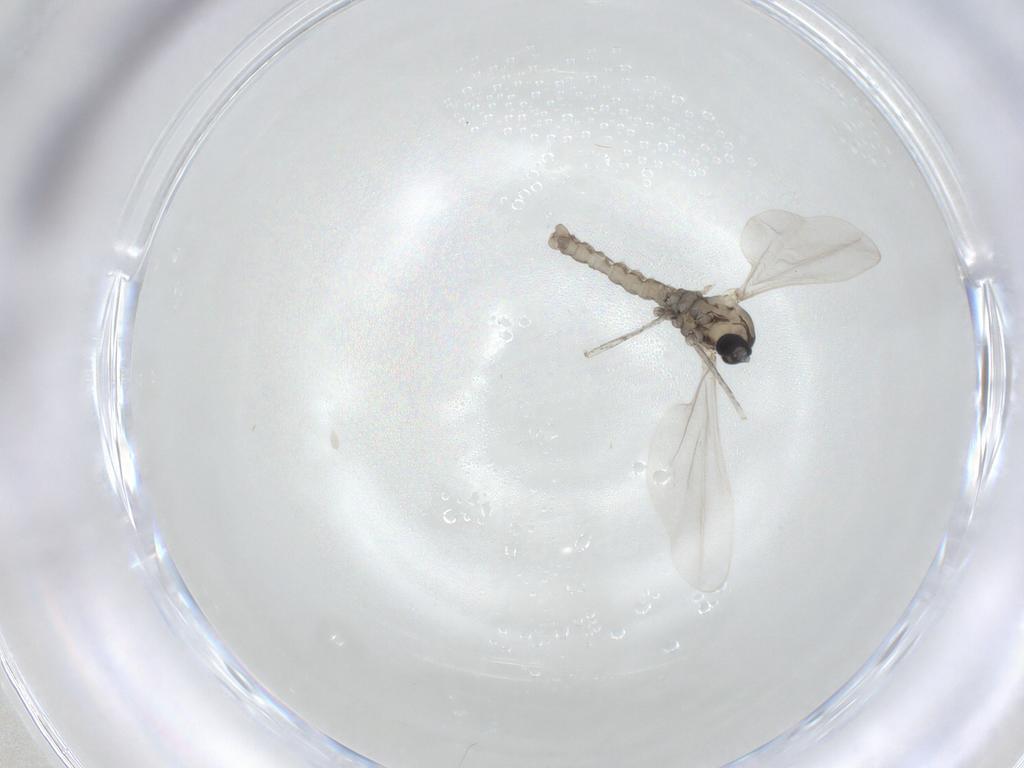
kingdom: Animalia
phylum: Arthropoda
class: Insecta
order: Diptera
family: Cecidomyiidae
